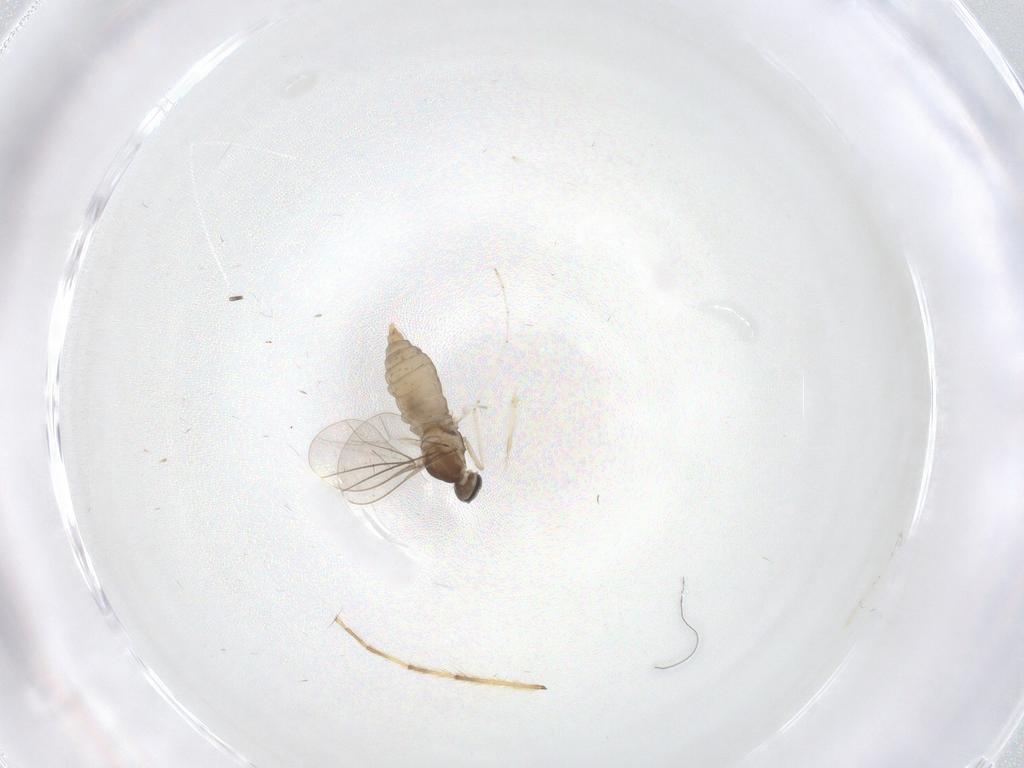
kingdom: Animalia
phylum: Arthropoda
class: Insecta
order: Diptera
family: Cecidomyiidae
